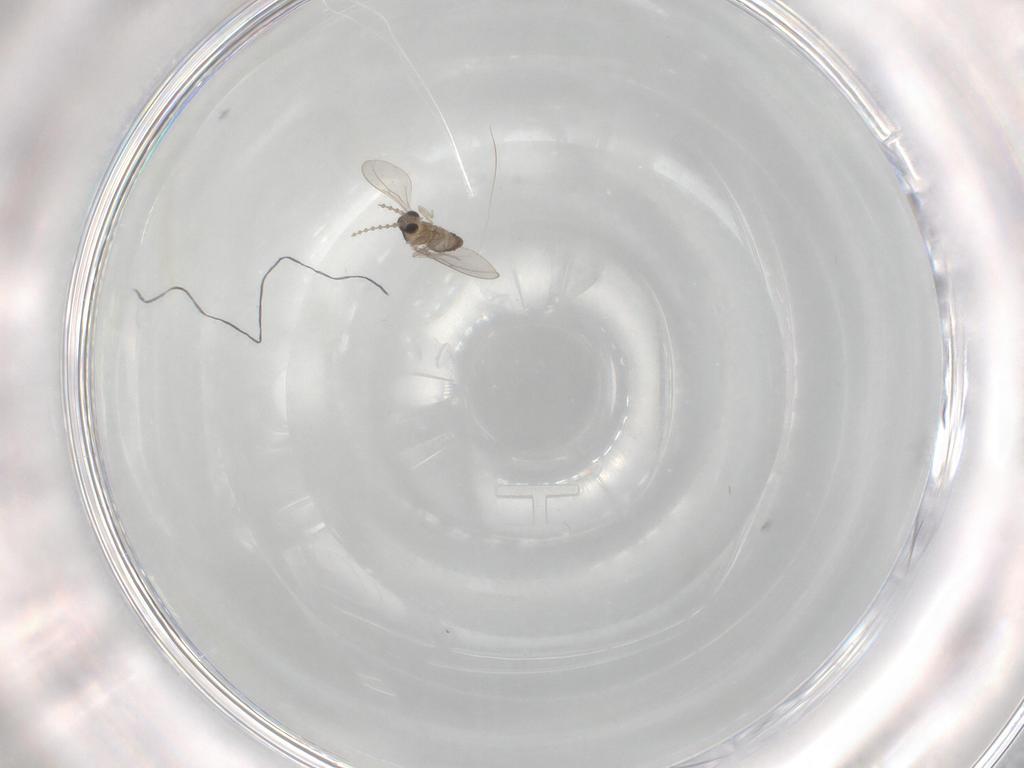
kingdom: Animalia
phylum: Arthropoda
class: Insecta
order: Diptera
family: Cecidomyiidae
